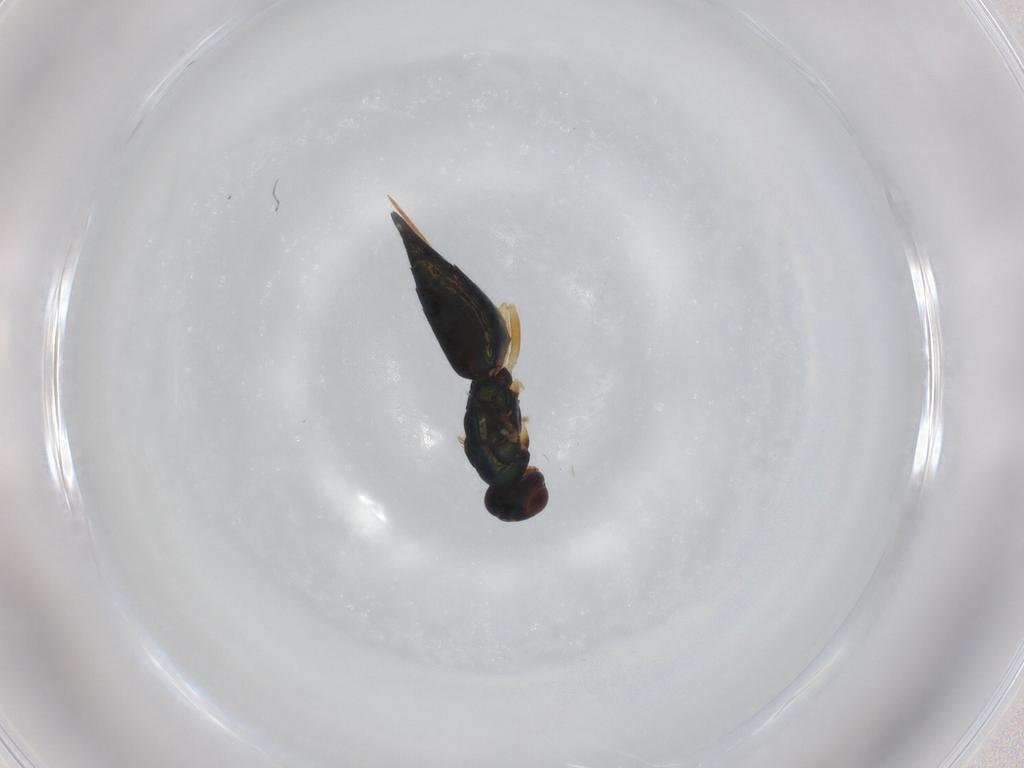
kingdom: Animalia
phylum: Arthropoda
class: Insecta
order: Hymenoptera
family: Eulophidae
